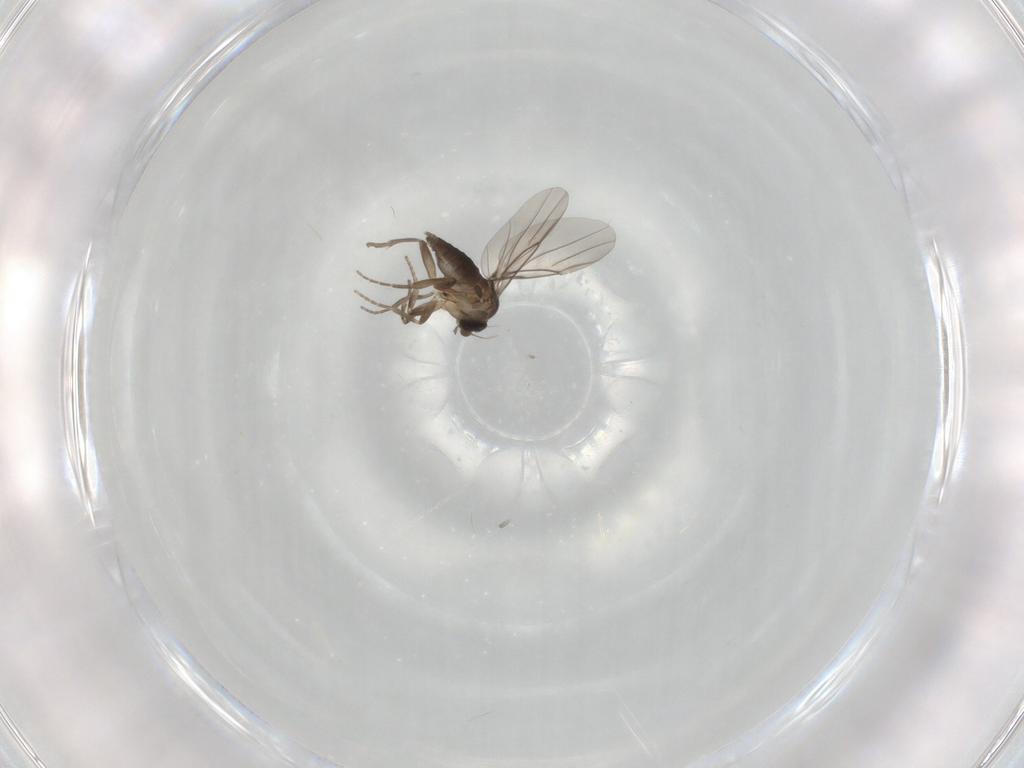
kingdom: Animalia
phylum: Arthropoda
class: Insecta
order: Diptera
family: Phoridae
